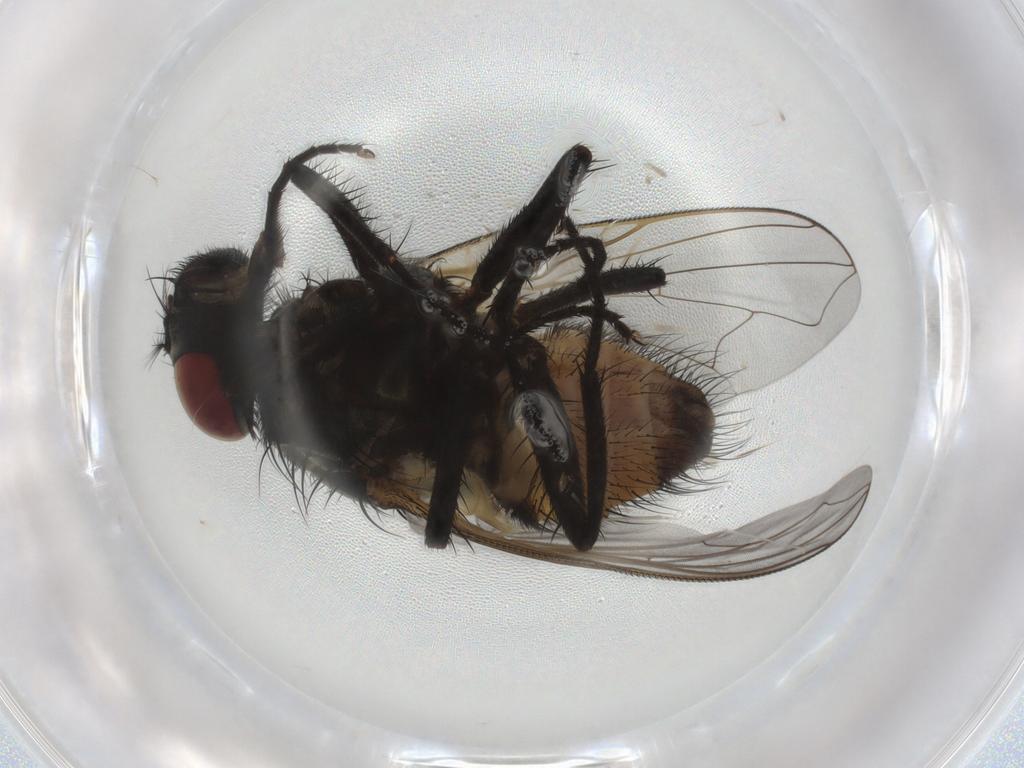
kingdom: Animalia
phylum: Arthropoda
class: Insecta
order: Diptera
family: Muscidae
